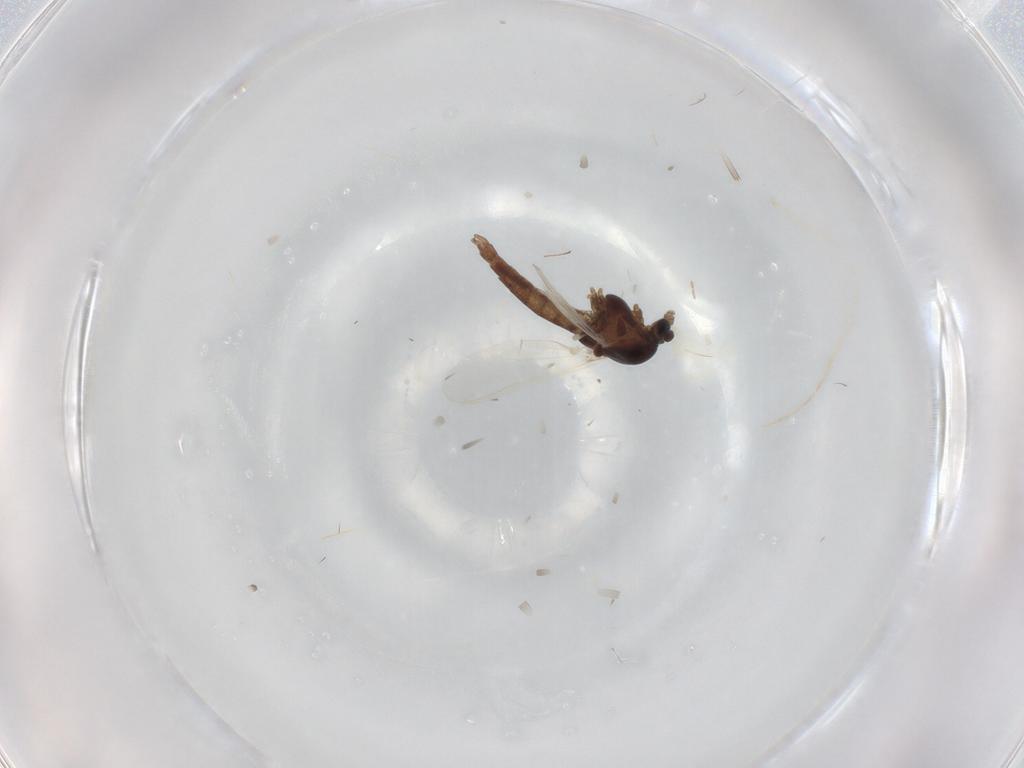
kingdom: Animalia
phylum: Arthropoda
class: Insecta
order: Diptera
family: Chironomidae
